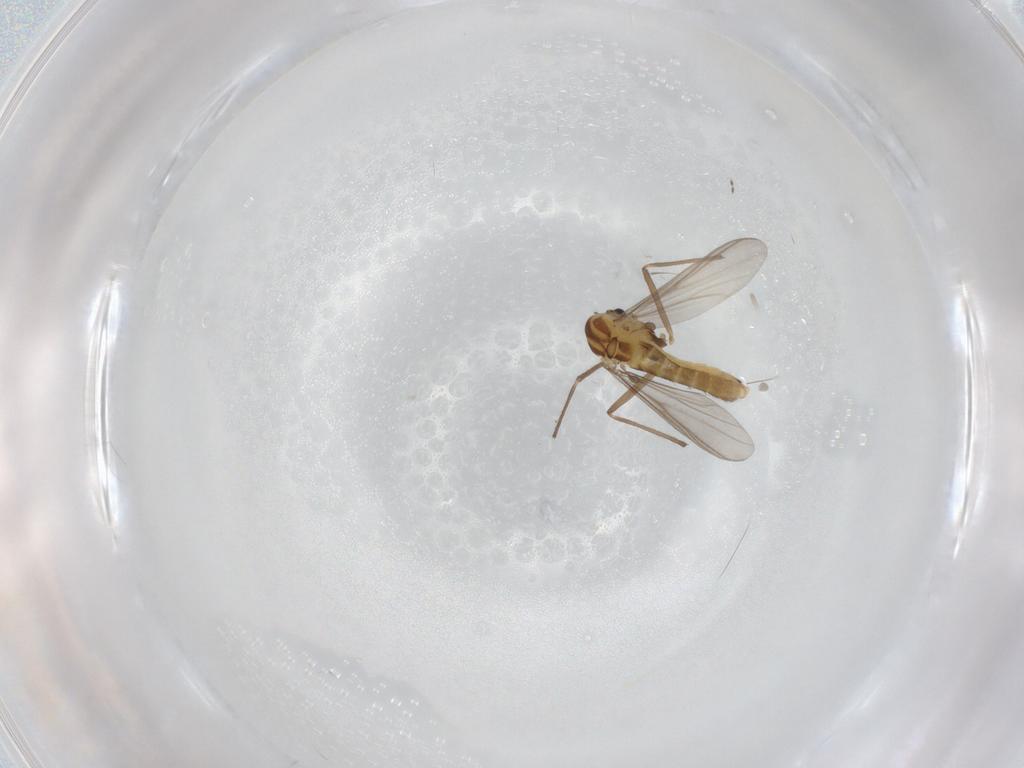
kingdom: Animalia
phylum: Arthropoda
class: Insecta
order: Diptera
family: Chironomidae
